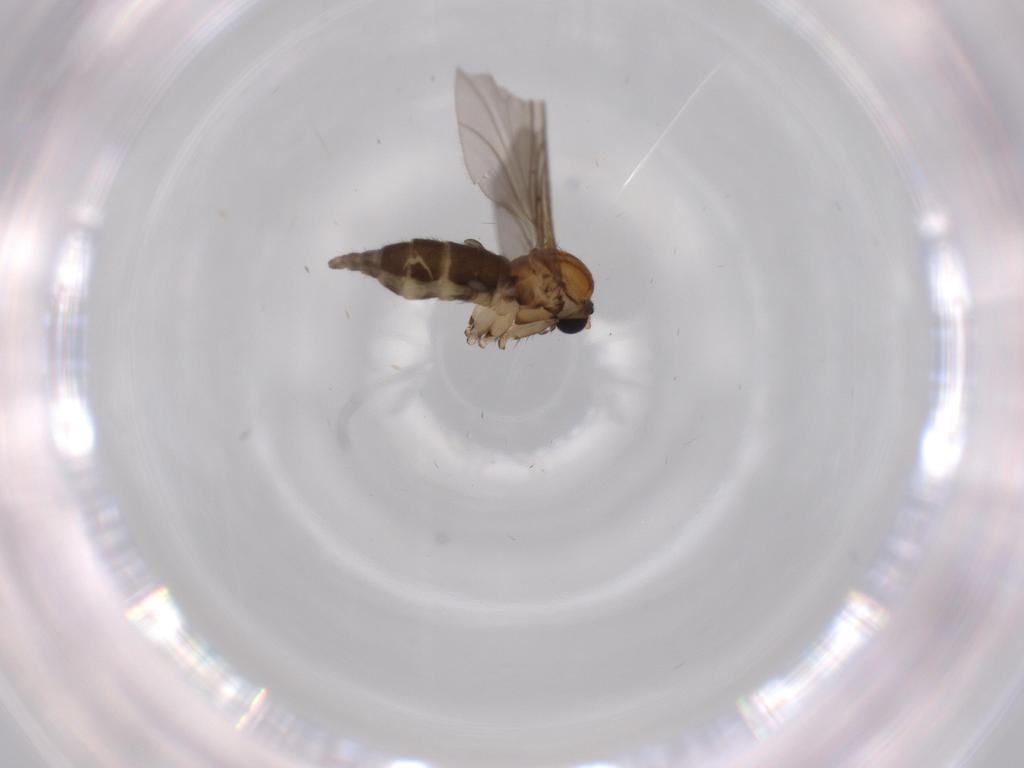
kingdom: Animalia
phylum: Arthropoda
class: Insecta
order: Diptera
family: Sciaridae
